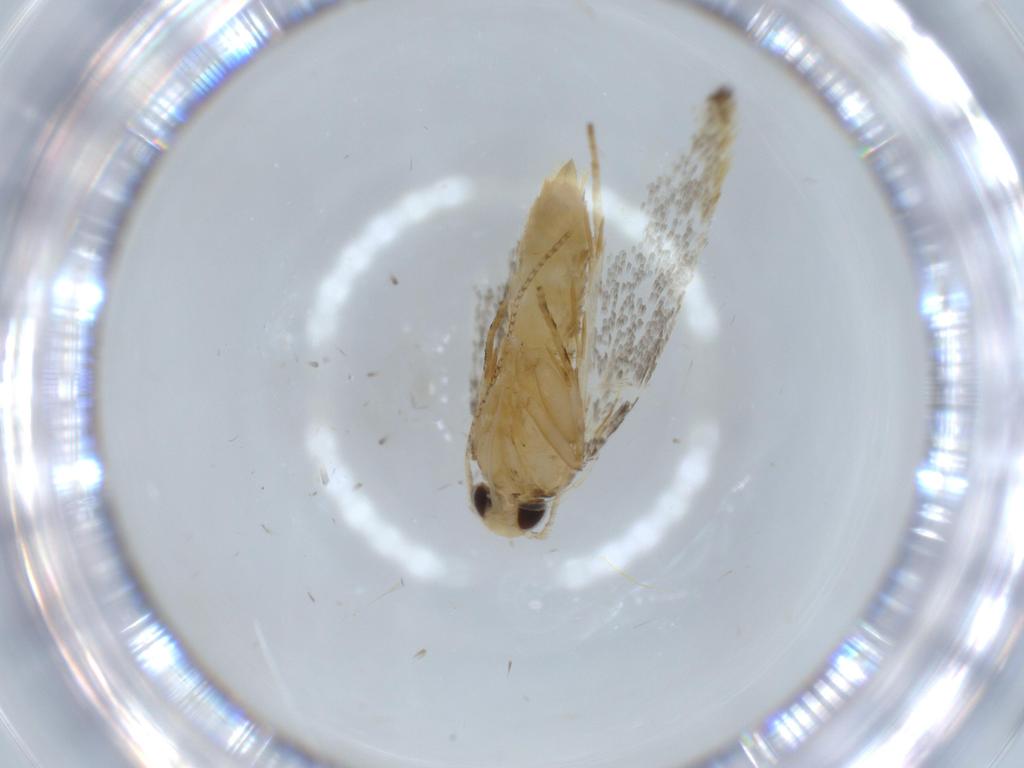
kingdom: Animalia
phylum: Arthropoda
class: Insecta
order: Lepidoptera
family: Autostichidae
